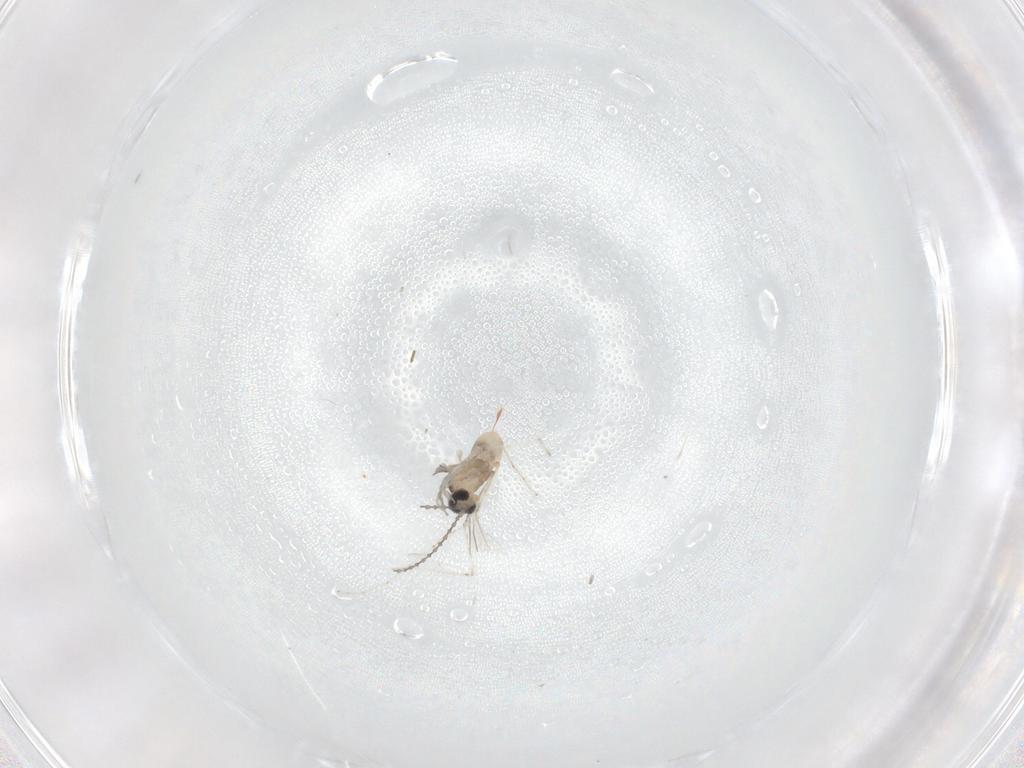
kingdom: Animalia
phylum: Arthropoda
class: Insecta
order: Diptera
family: Cecidomyiidae
